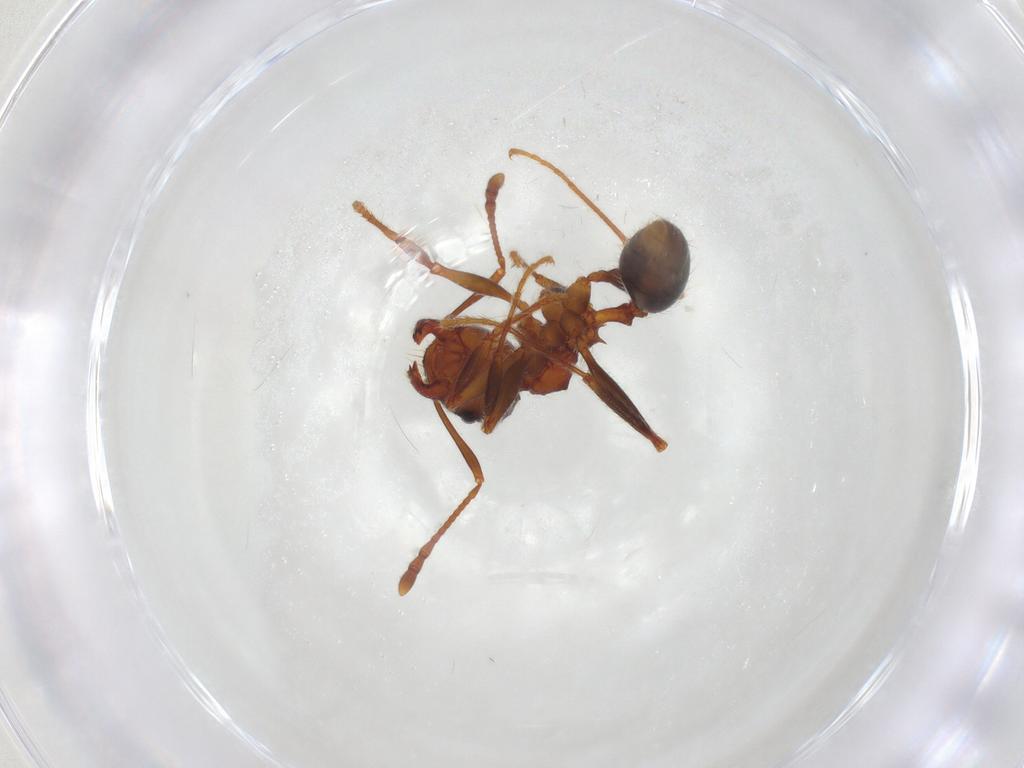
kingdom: Animalia
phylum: Arthropoda
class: Insecta
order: Hymenoptera
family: Formicidae
